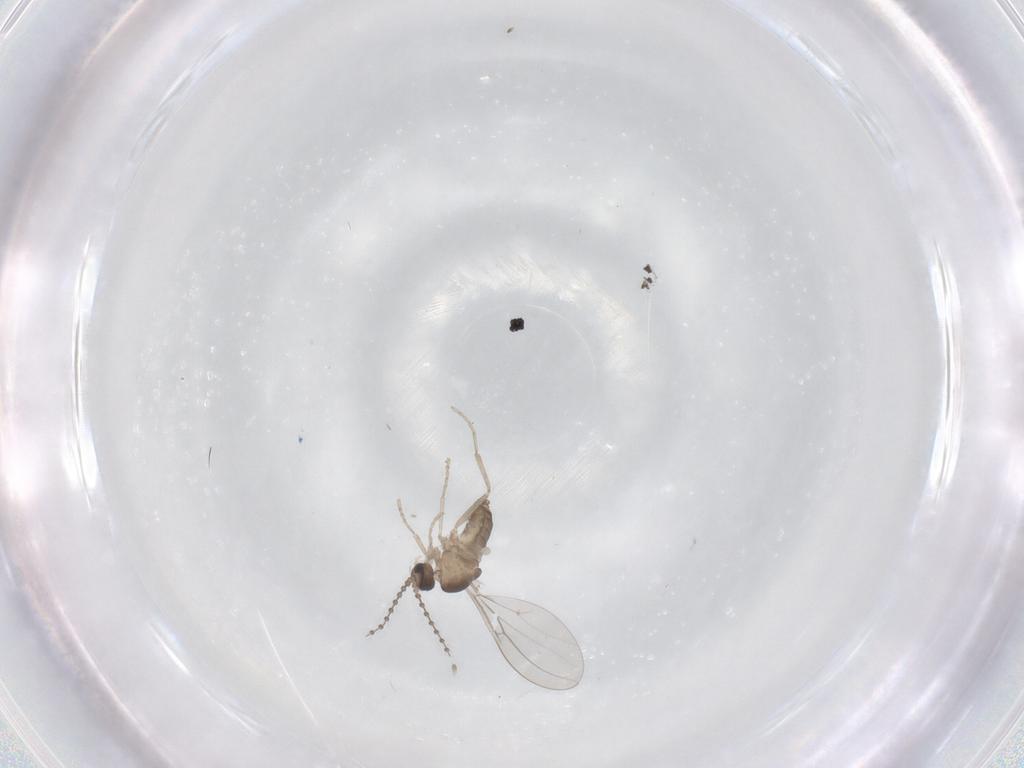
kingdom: Animalia
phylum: Arthropoda
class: Insecta
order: Diptera
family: Cecidomyiidae
